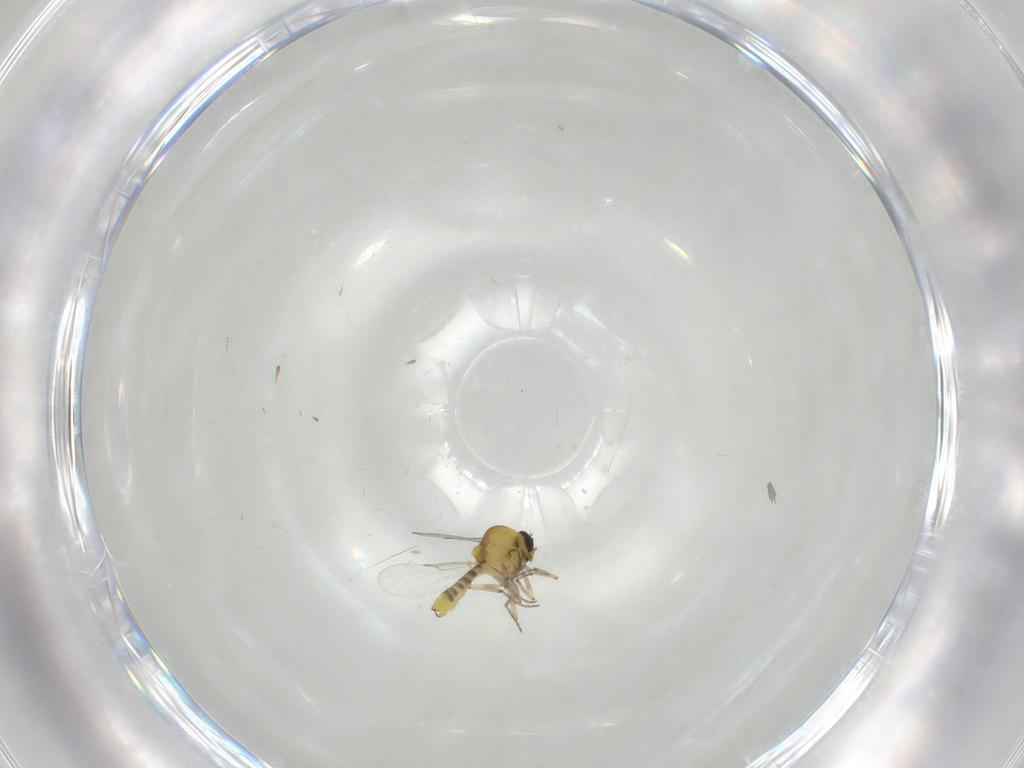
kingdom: Animalia
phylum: Arthropoda
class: Insecta
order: Diptera
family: Ceratopogonidae
